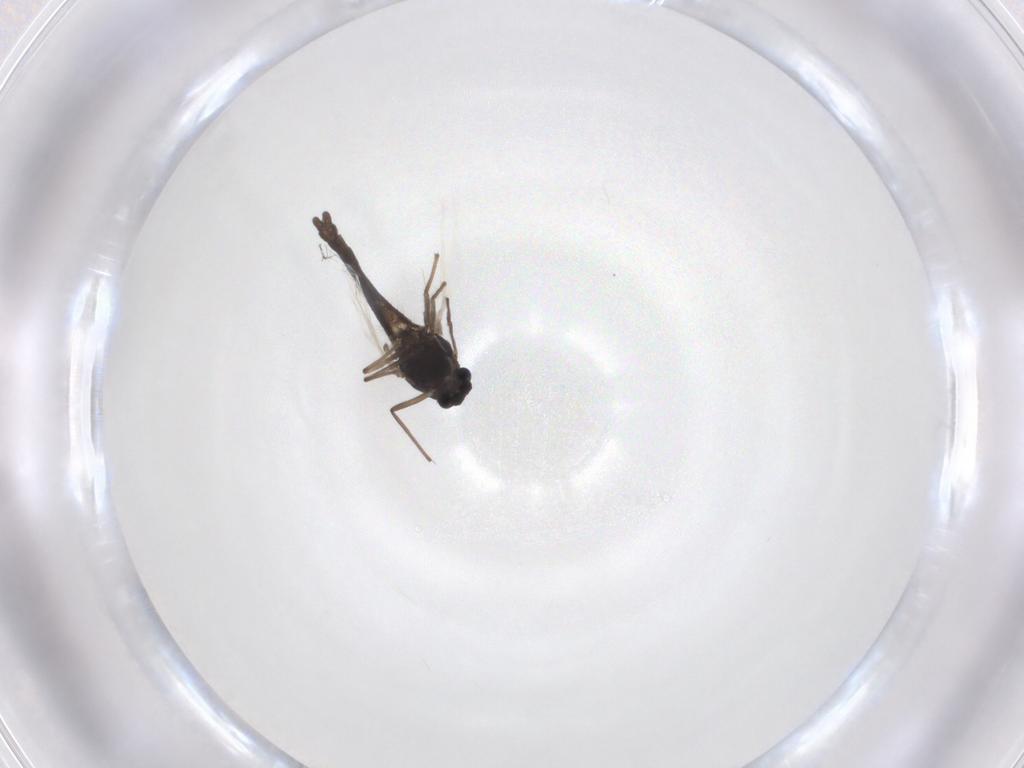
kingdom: Animalia
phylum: Arthropoda
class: Insecta
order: Diptera
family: Chironomidae
